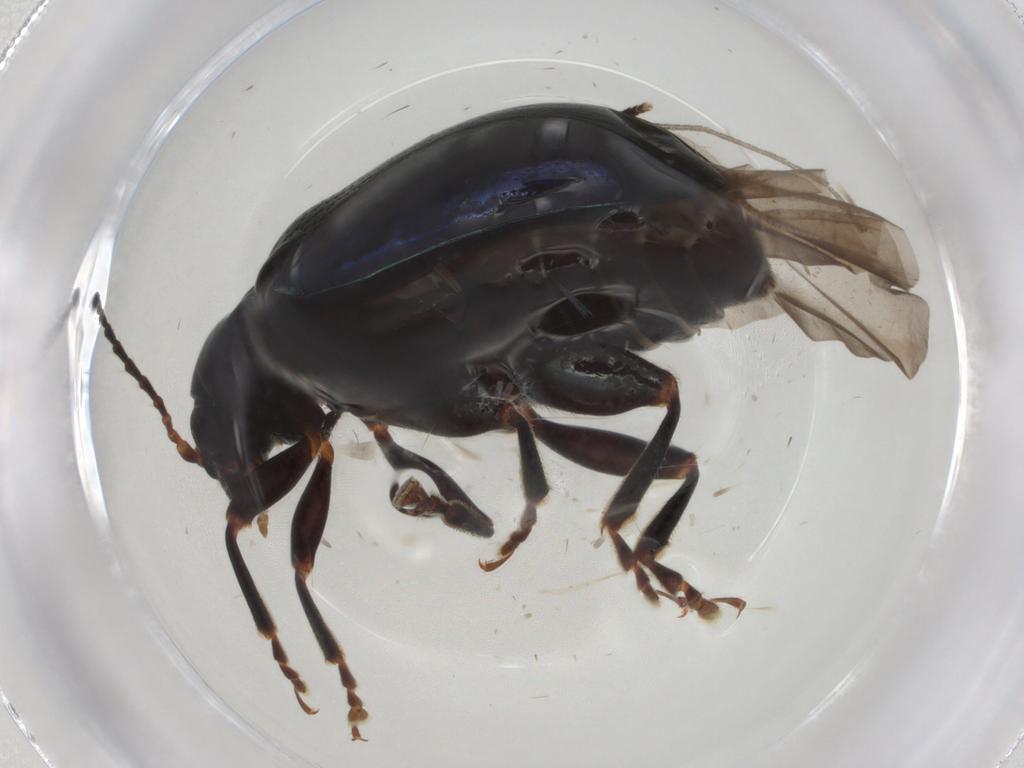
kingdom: Animalia
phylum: Arthropoda
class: Insecta
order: Coleoptera
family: Chrysomelidae
